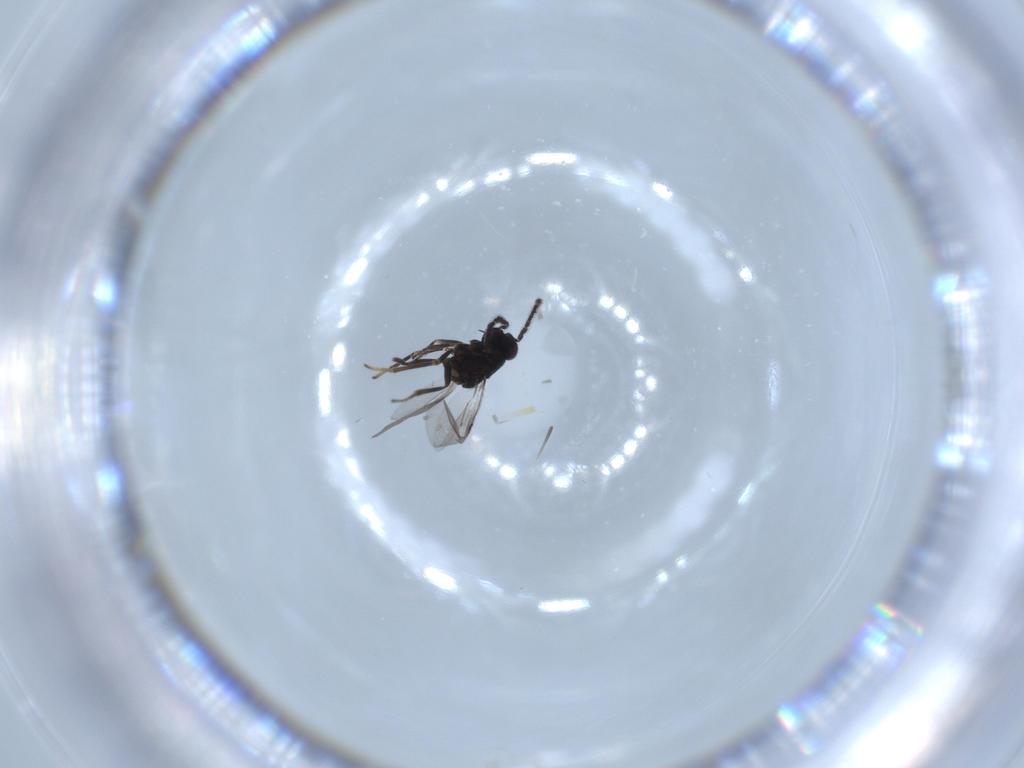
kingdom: Animalia
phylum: Arthropoda
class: Insecta
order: Hymenoptera
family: Encyrtidae
